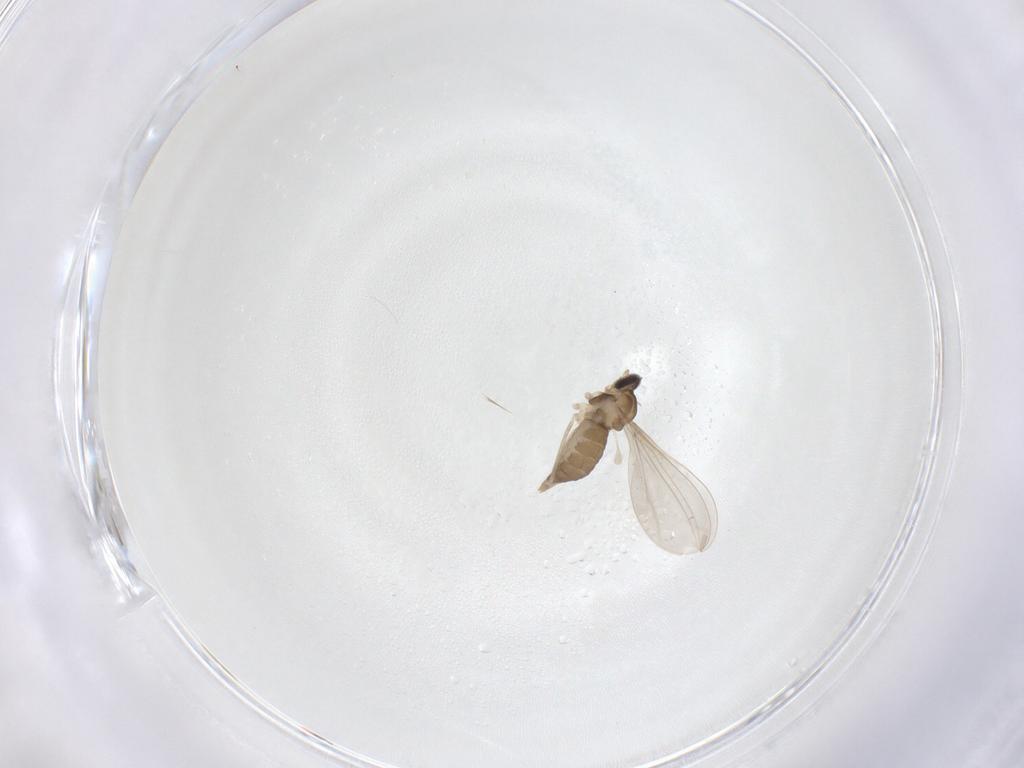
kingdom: Animalia
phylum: Arthropoda
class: Insecta
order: Diptera
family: Cecidomyiidae
